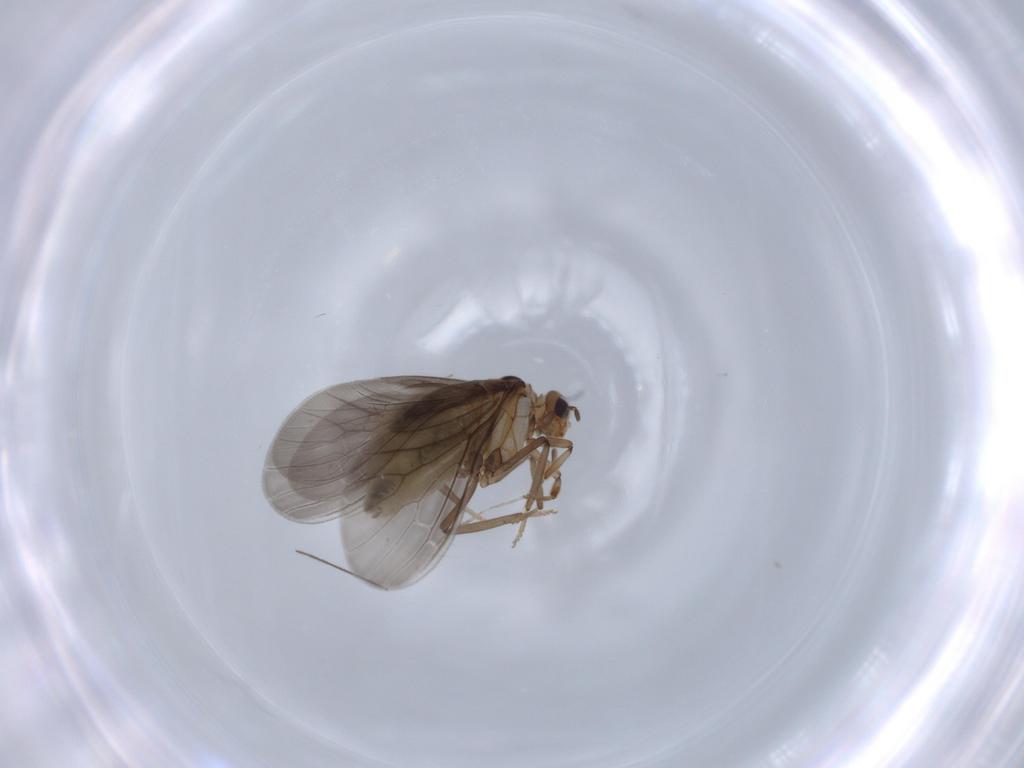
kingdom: Animalia
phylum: Arthropoda
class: Insecta
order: Neuroptera
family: Coniopterygidae
